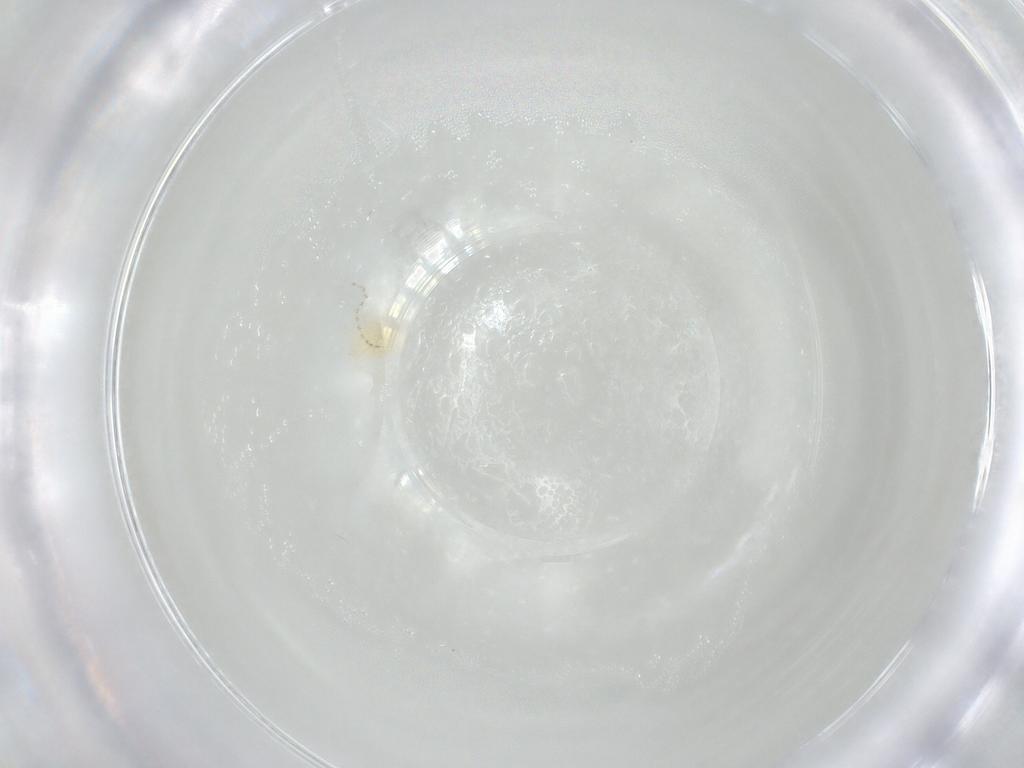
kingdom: Animalia
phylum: Arthropoda
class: Arachnida
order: Trombidiformes
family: Anystidae
